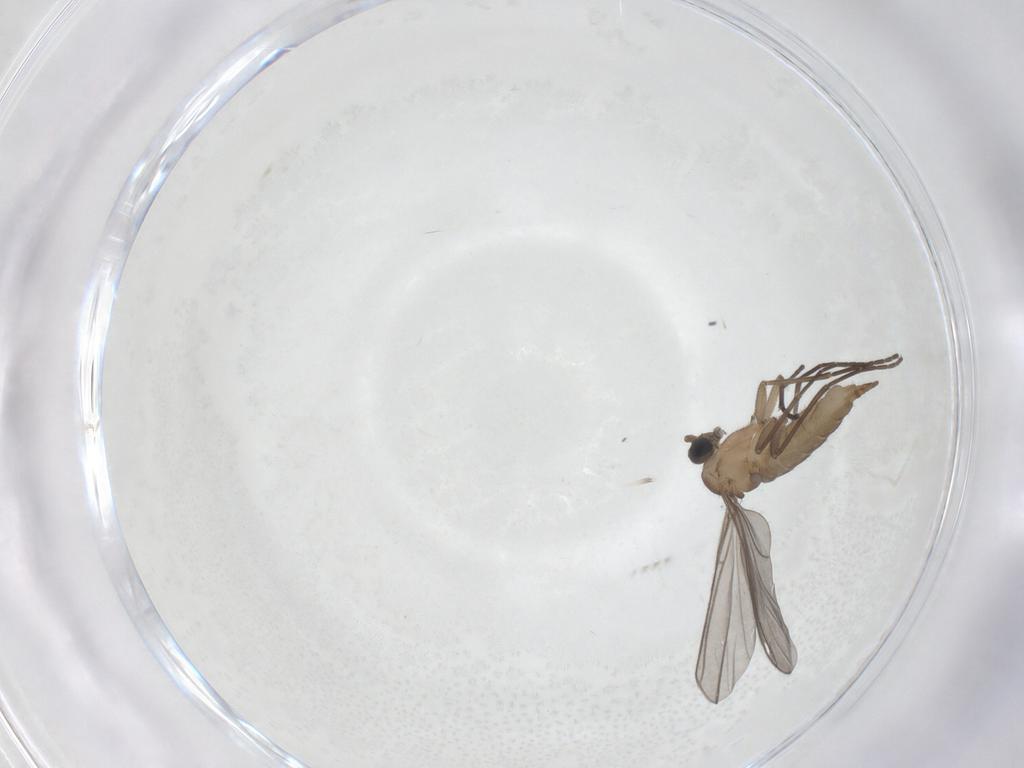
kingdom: Animalia
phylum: Arthropoda
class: Insecta
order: Diptera
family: Sciaridae
